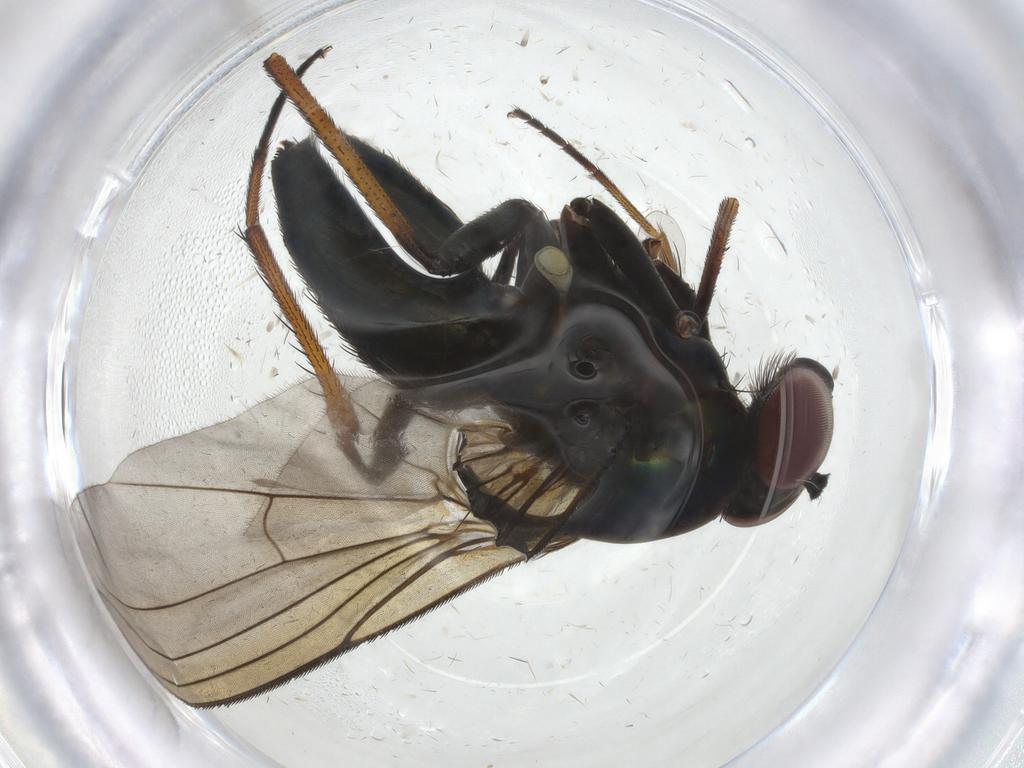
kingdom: Animalia
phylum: Arthropoda
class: Insecta
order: Diptera
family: Dolichopodidae
